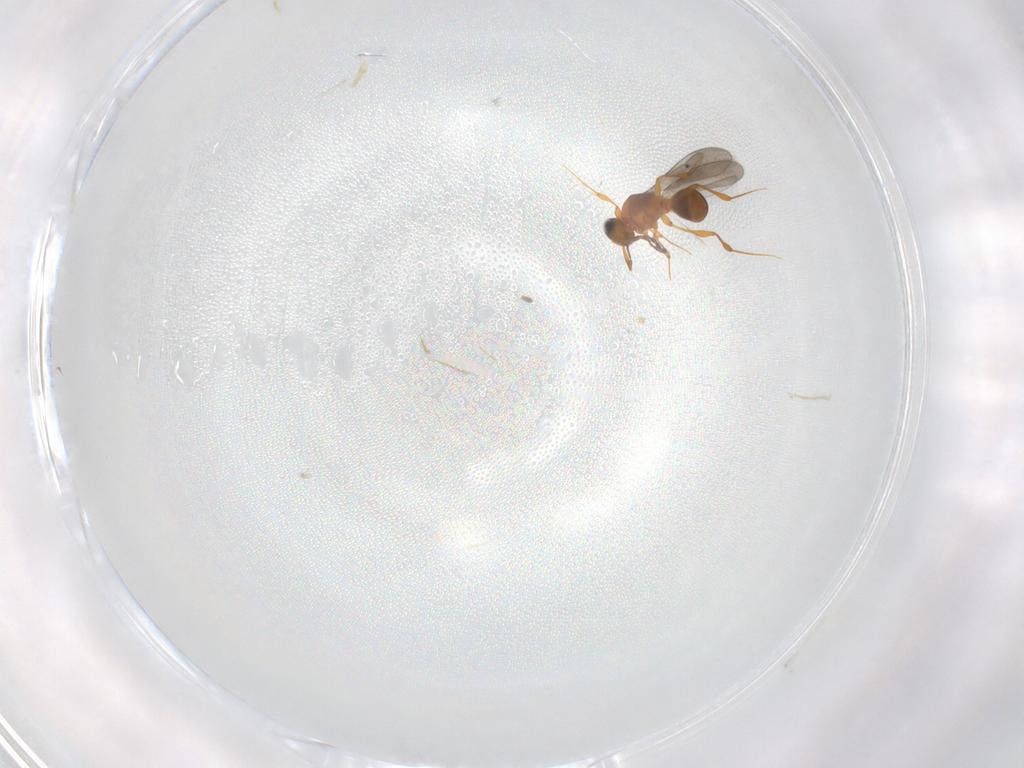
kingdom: Animalia
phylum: Arthropoda
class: Insecta
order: Hymenoptera
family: Platygastridae
